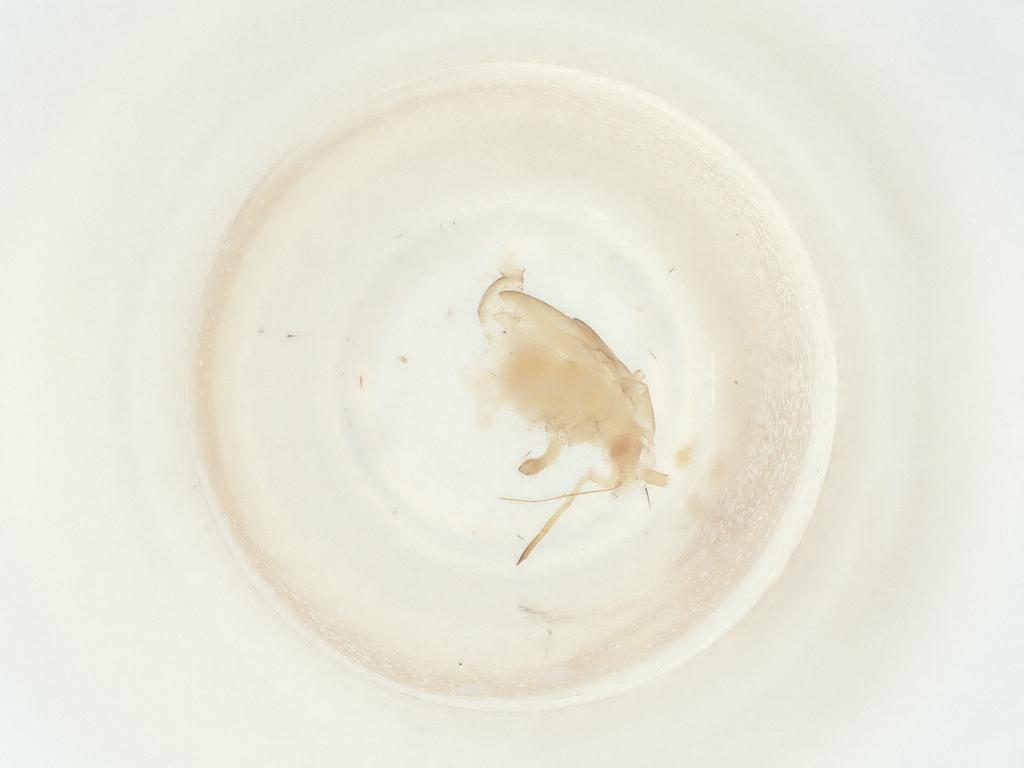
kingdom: Animalia
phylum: Arthropoda
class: Insecta
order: Hemiptera
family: Miridae
